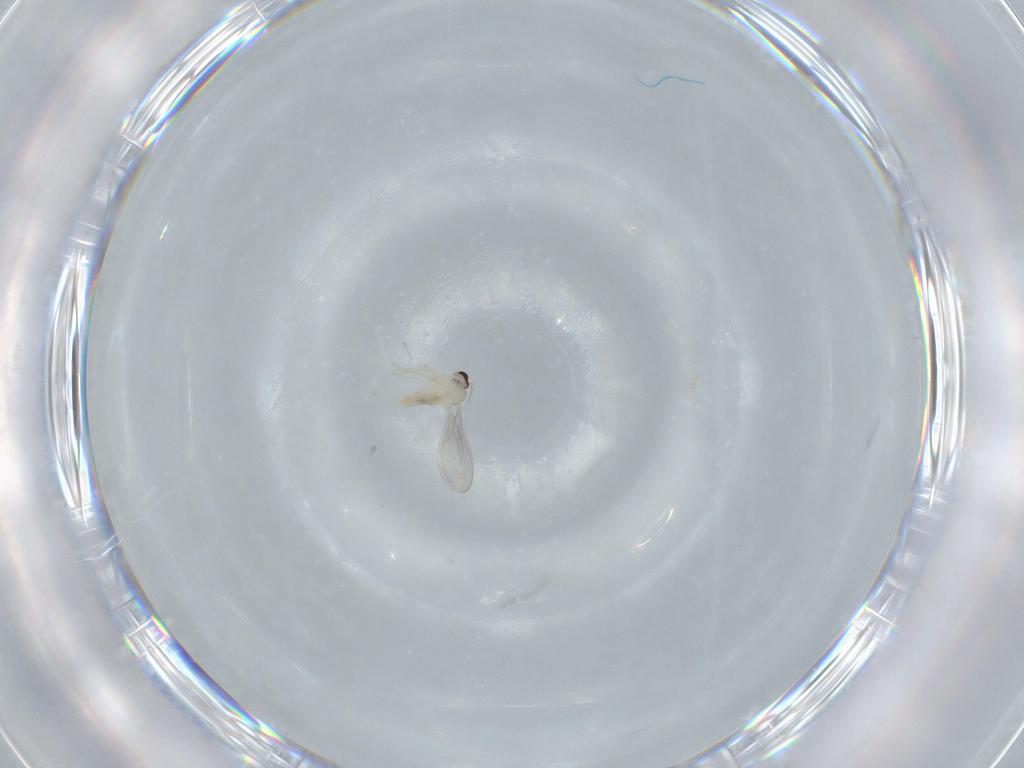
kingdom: Animalia
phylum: Arthropoda
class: Insecta
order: Diptera
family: Cecidomyiidae
